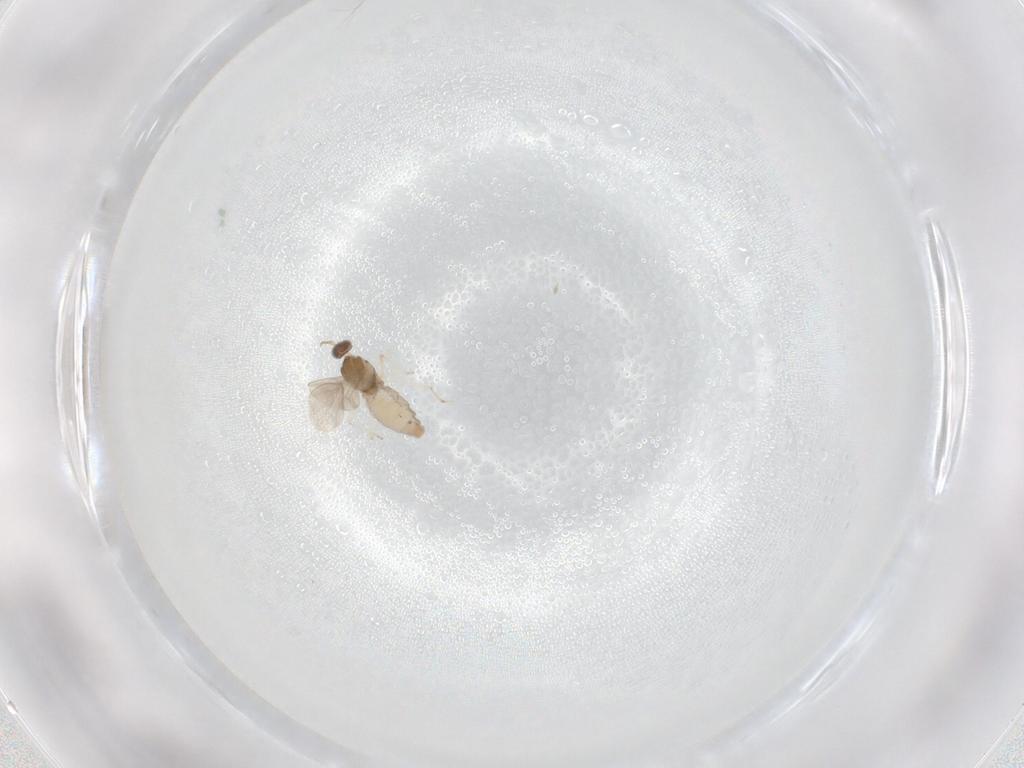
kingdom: Animalia
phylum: Arthropoda
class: Insecta
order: Diptera
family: Cecidomyiidae
